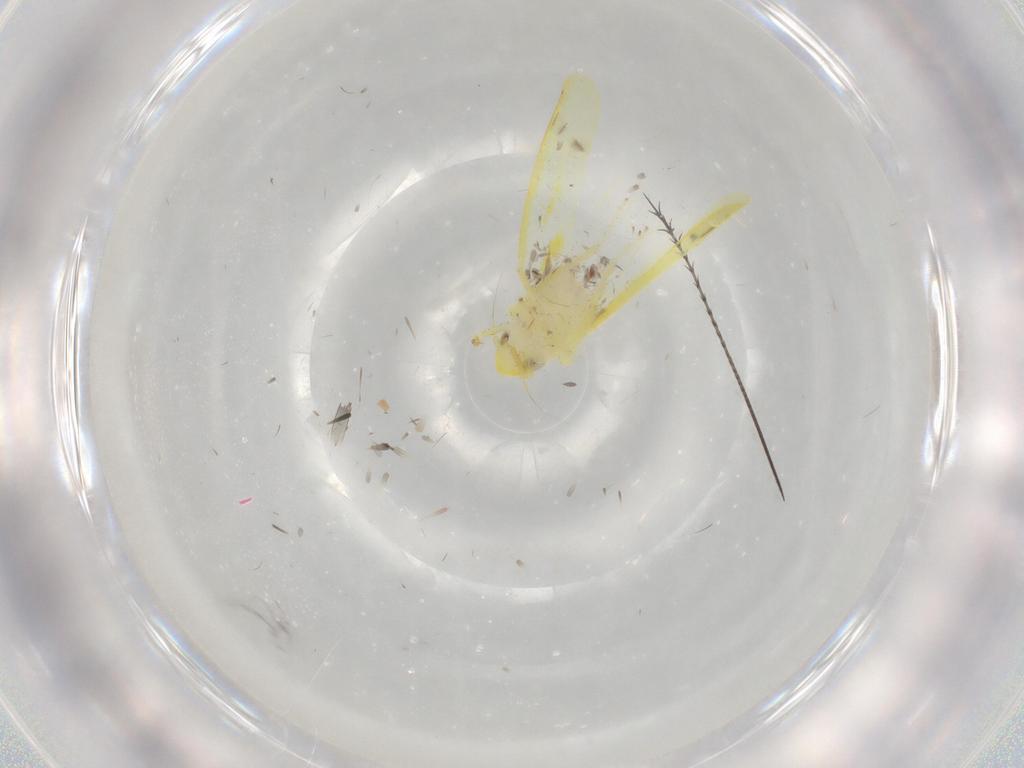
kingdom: Animalia
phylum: Arthropoda
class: Insecta
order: Hemiptera
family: Cicadellidae
